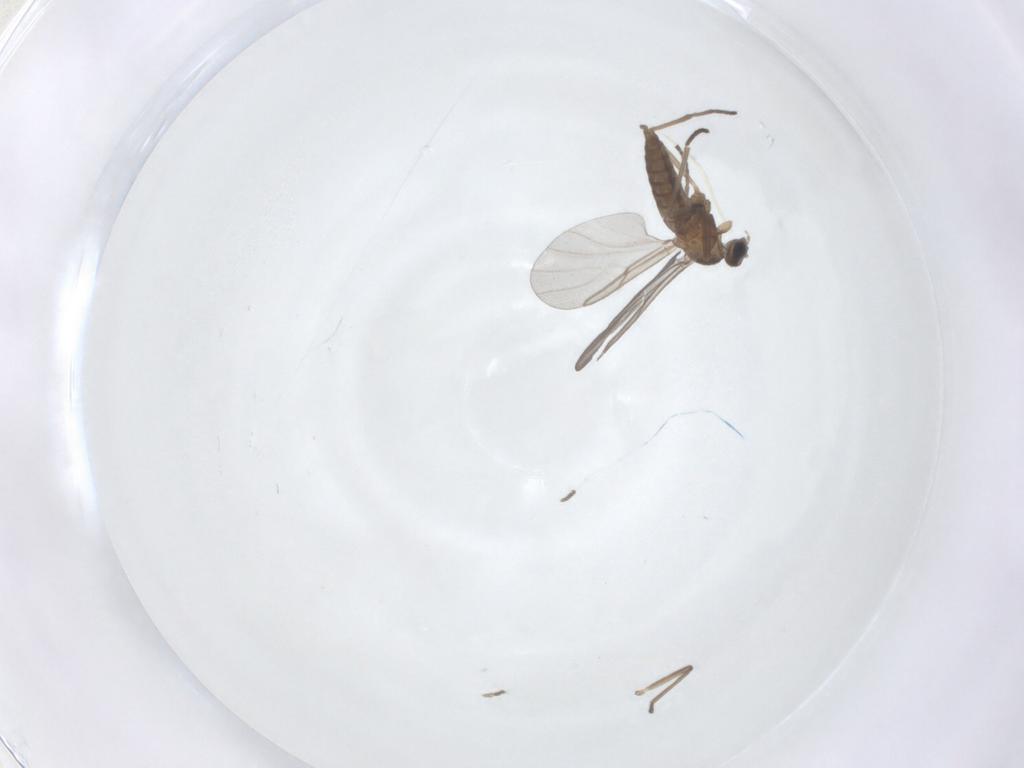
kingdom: Animalia
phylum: Arthropoda
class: Insecta
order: Diptera
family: Cecidomyiidae
